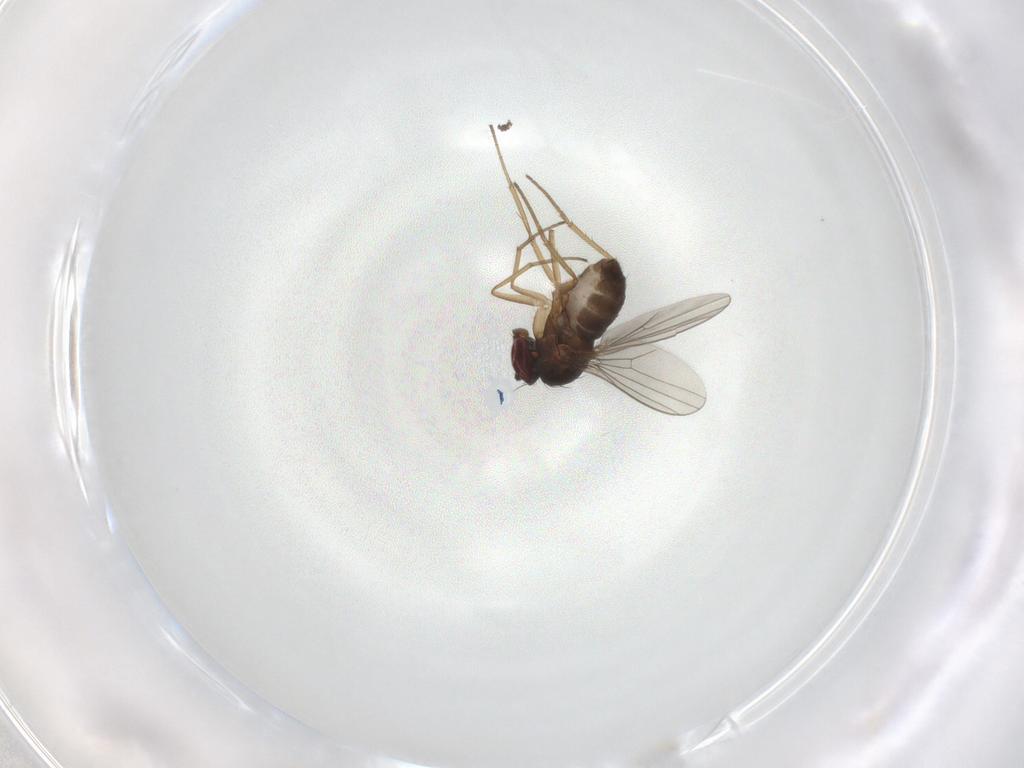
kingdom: Animalia
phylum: Arthropoda
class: Insecta
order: Diptera
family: Dolichopodidae
